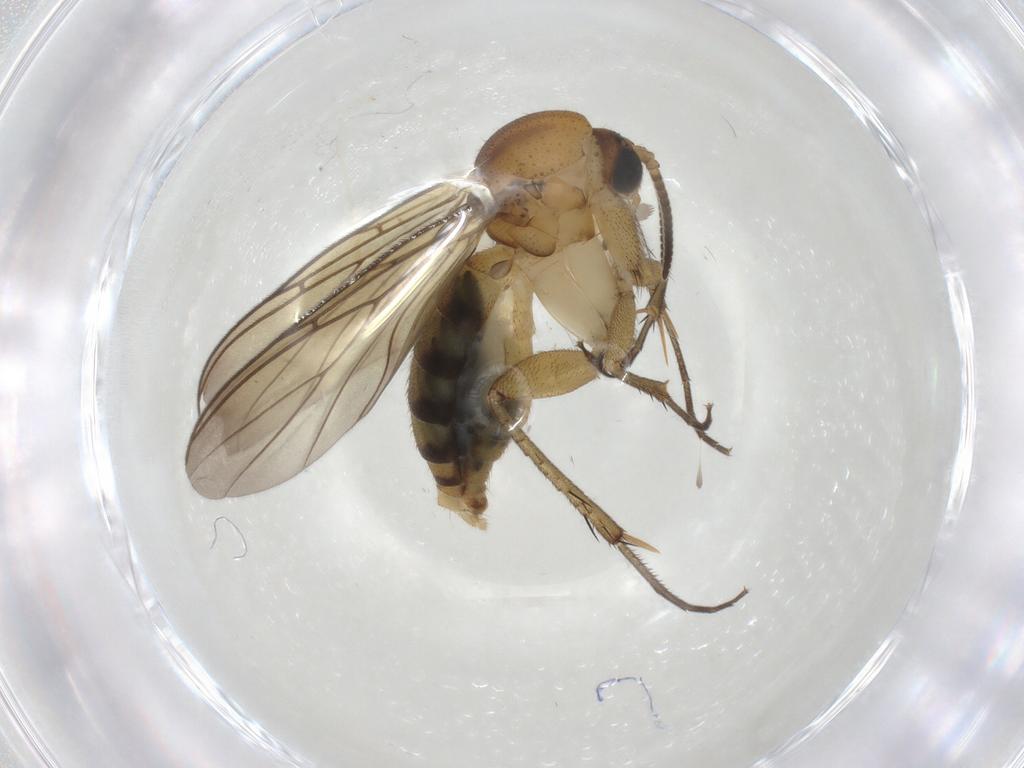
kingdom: Animalia
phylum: Arthropoda
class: Insecta
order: Diptera
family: Mycetophilidae
